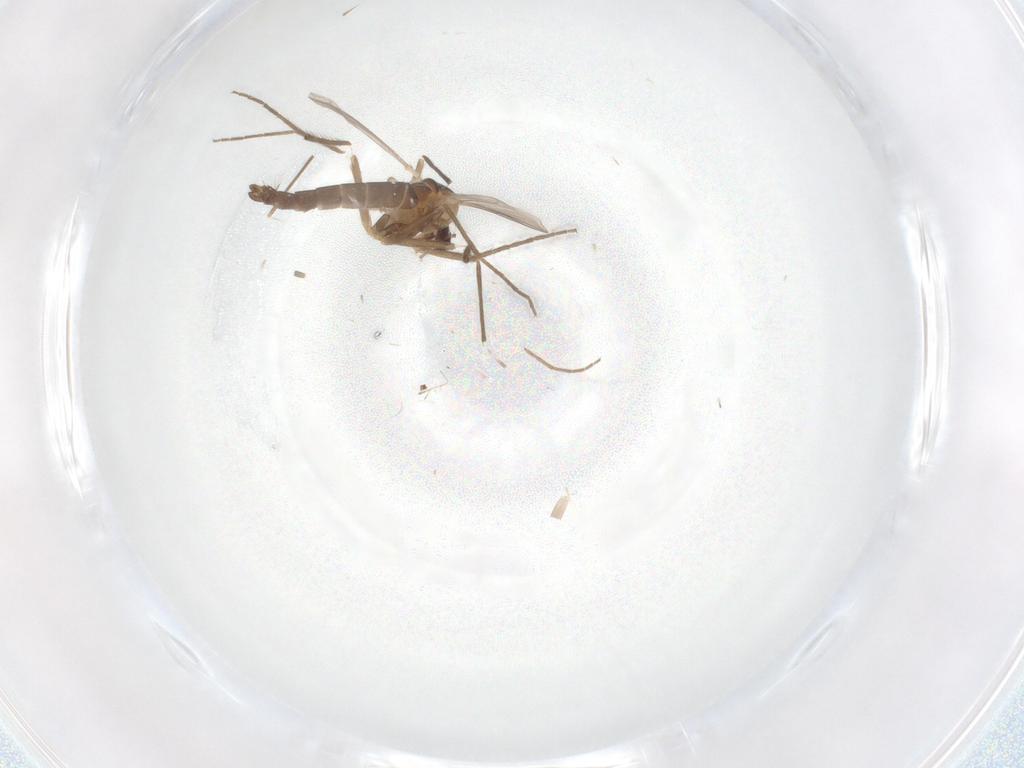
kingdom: Animalia
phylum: Arthropoda
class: Insecta
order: Diptera
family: Chironomidae
